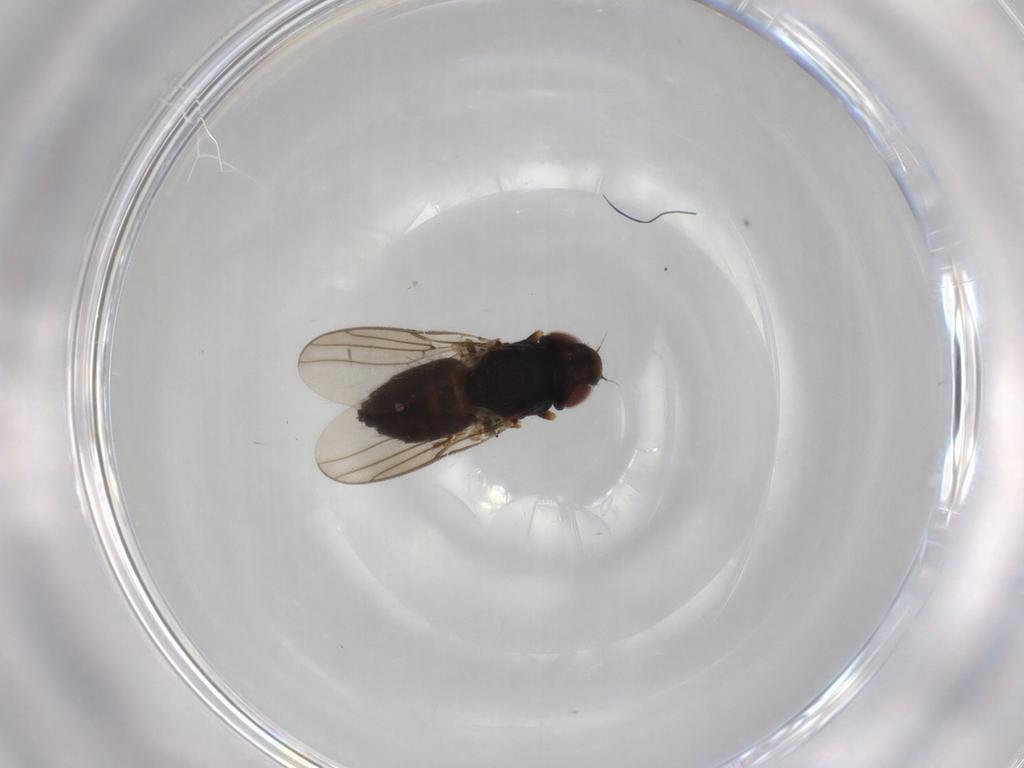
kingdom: Animalia
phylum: Arthropoda
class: Insecta
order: Diptera
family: Chloropidae
